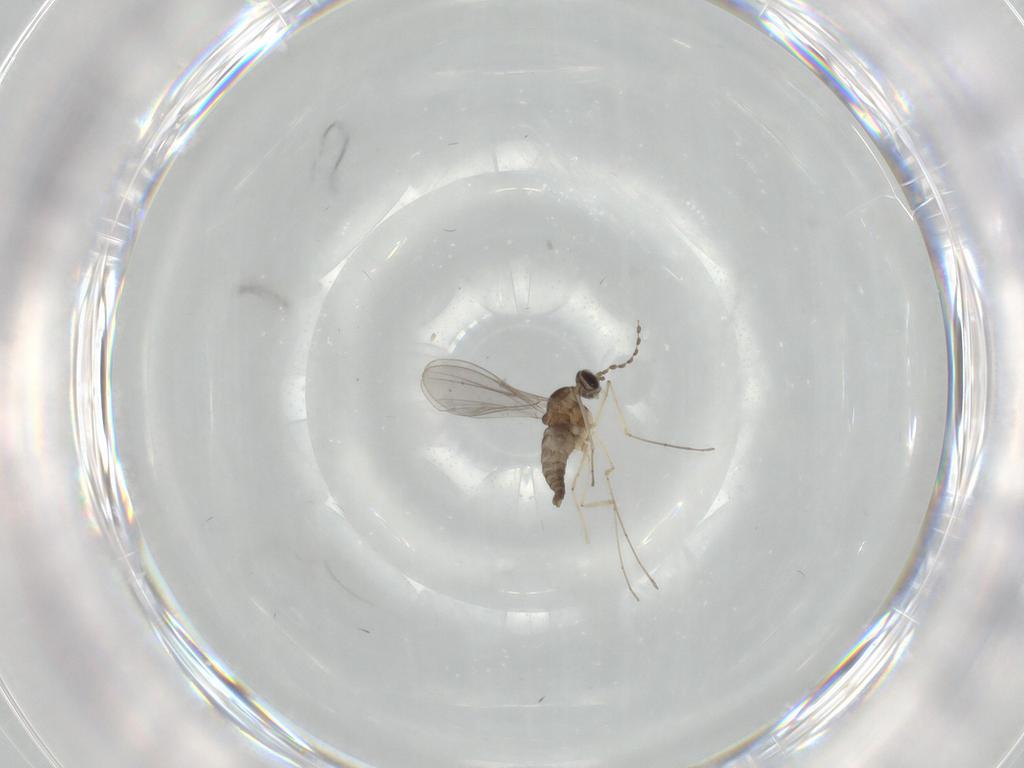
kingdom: Animalia
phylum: Arthropoda
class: Insecta
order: Diptera
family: Cecidomyiidae
